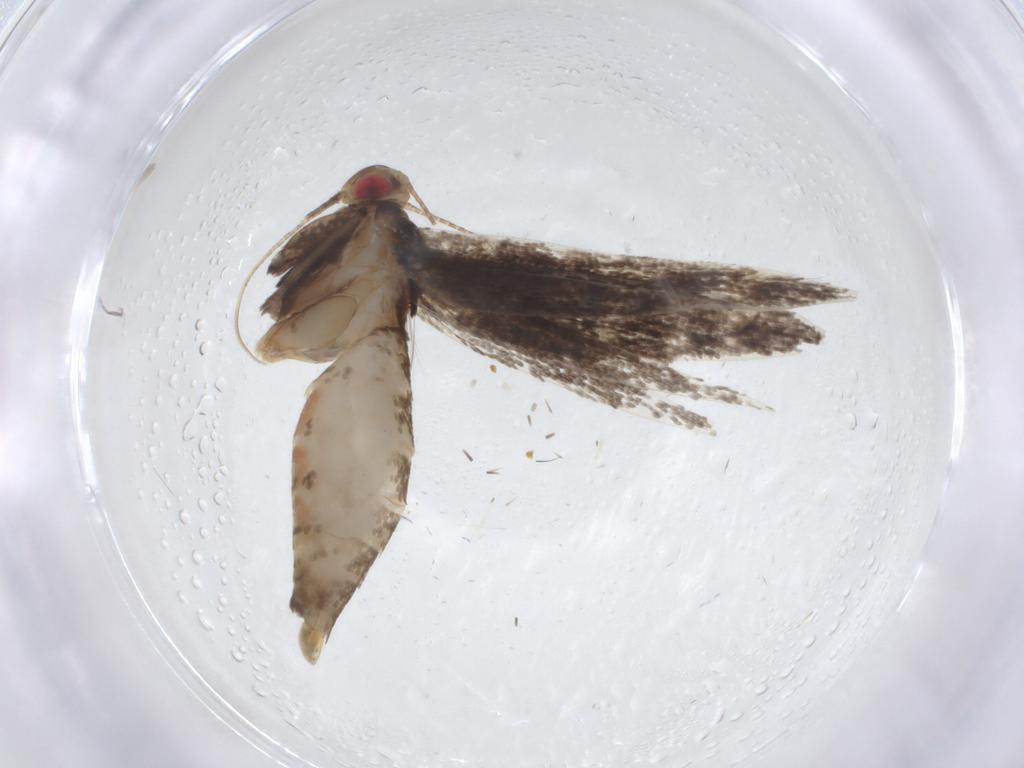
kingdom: Animalia
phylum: Arthropoda
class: Insecta
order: Lepidoptera
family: Gelechiidae
